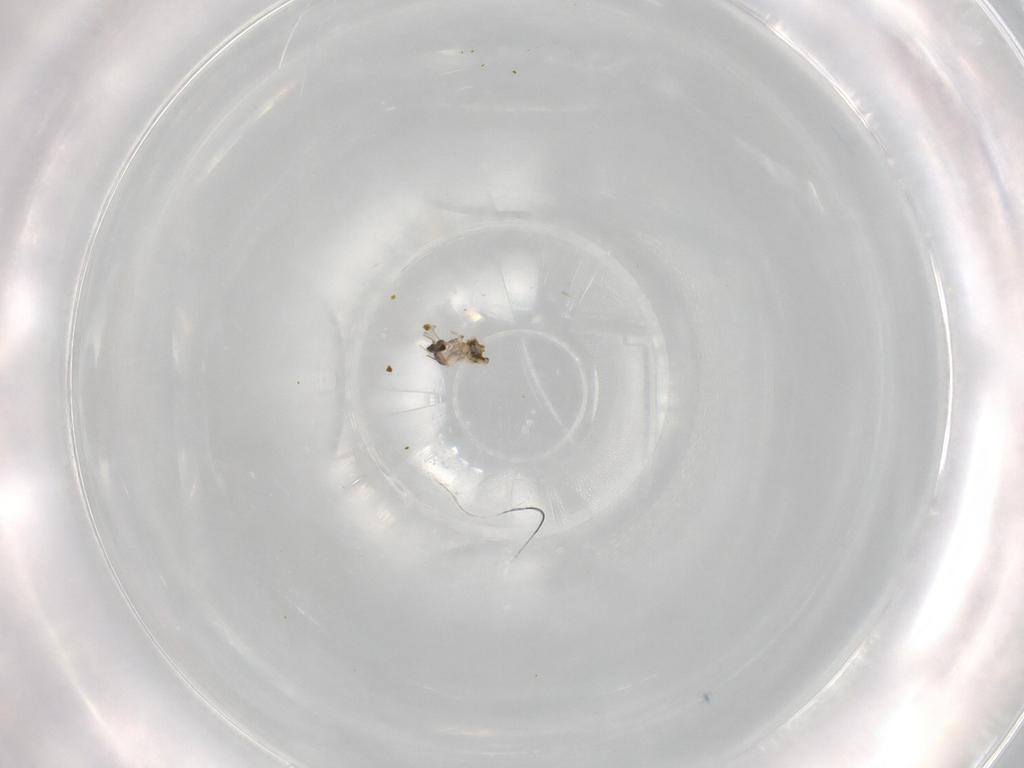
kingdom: Animalia
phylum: Arthropoda
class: Insecta
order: Diptera
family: Cecidomyiidae
